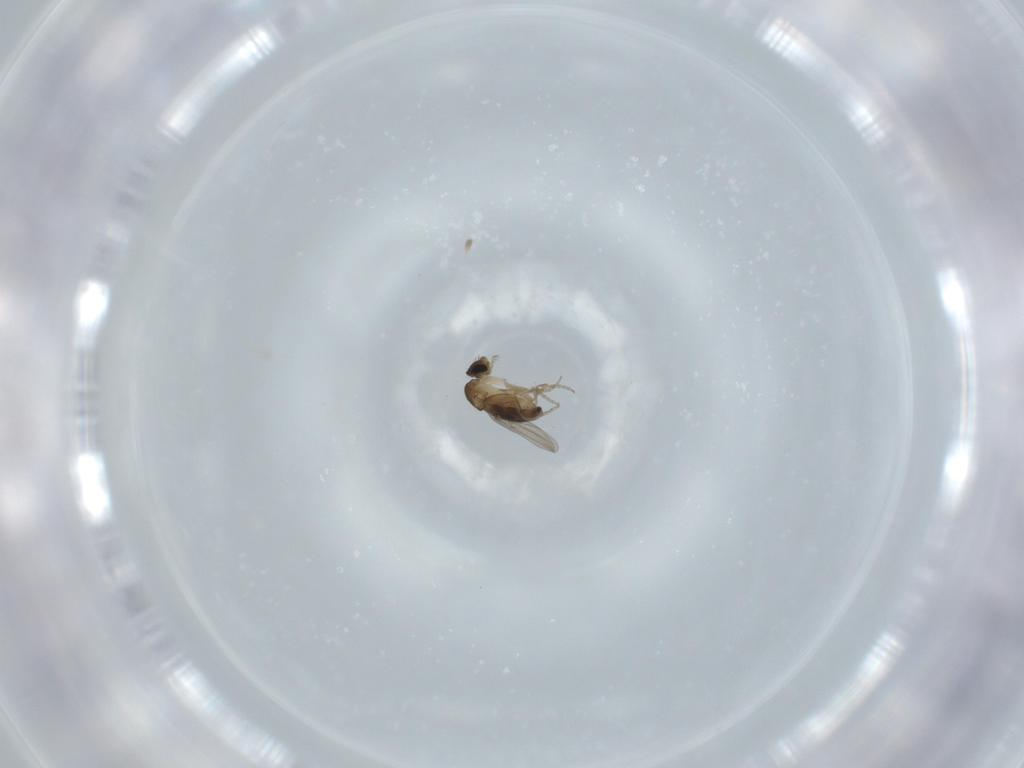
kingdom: Animalia
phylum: Arthropoda
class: Insecta
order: Diptera
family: Phoridae
